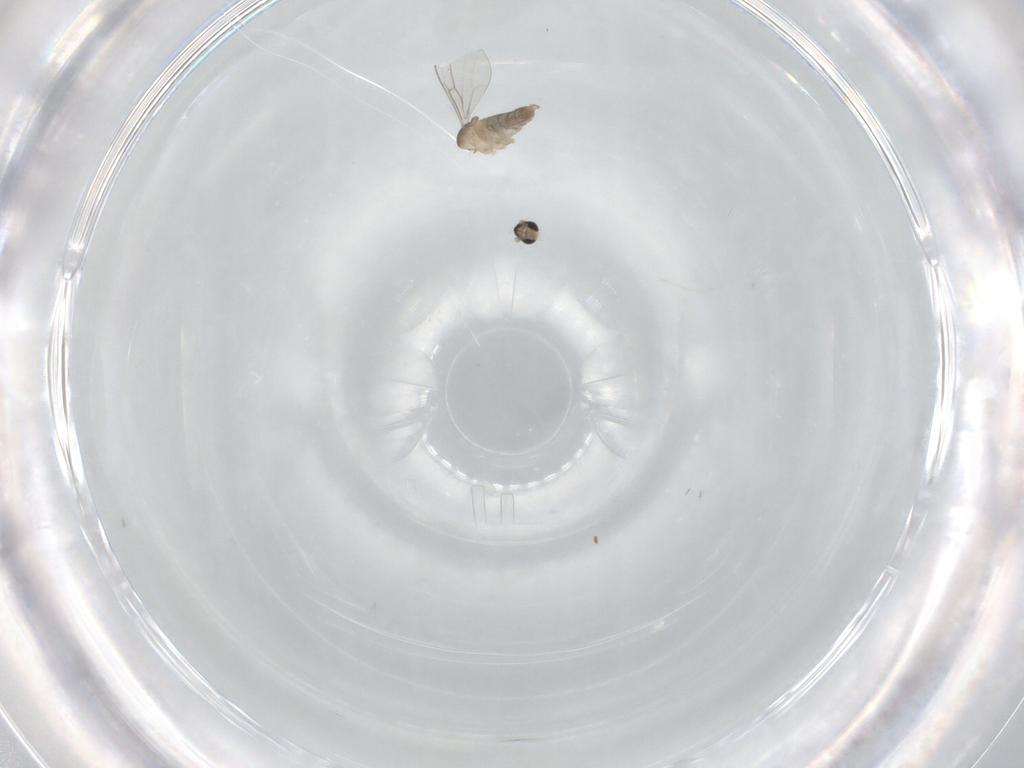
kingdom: Animalia
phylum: Arthropoda
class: Insecta
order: Diptera
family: Cecidomyiidae
